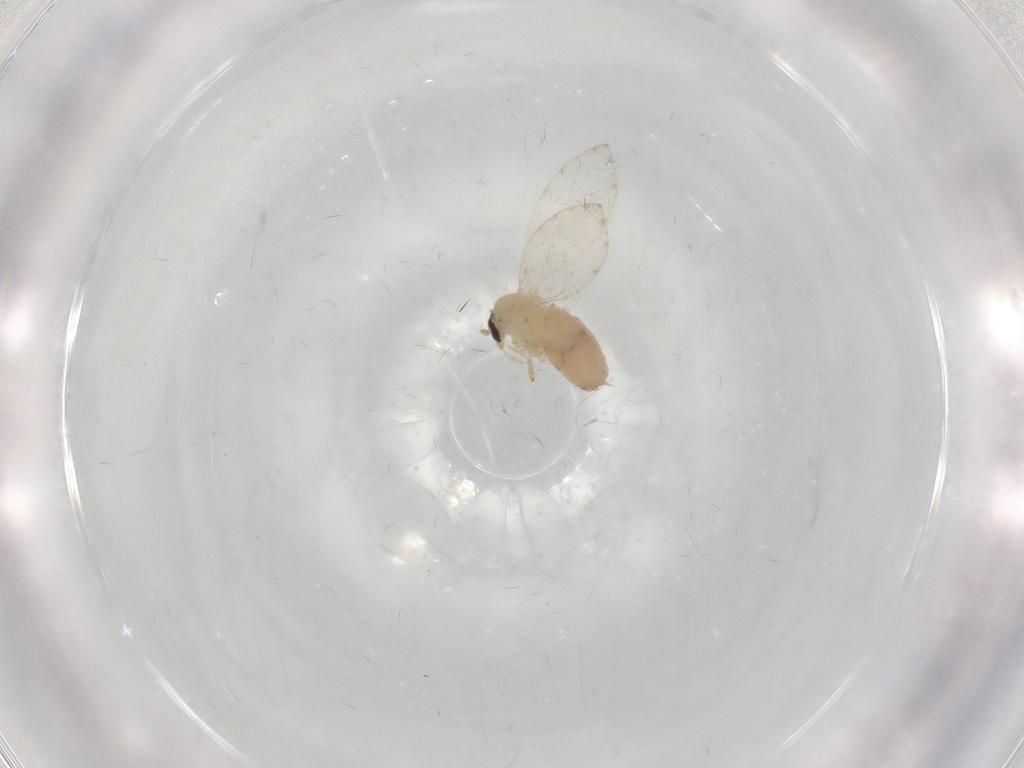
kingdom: Animalia
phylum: Arthropoda
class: Insecta
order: Diptera
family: Psychodidae
